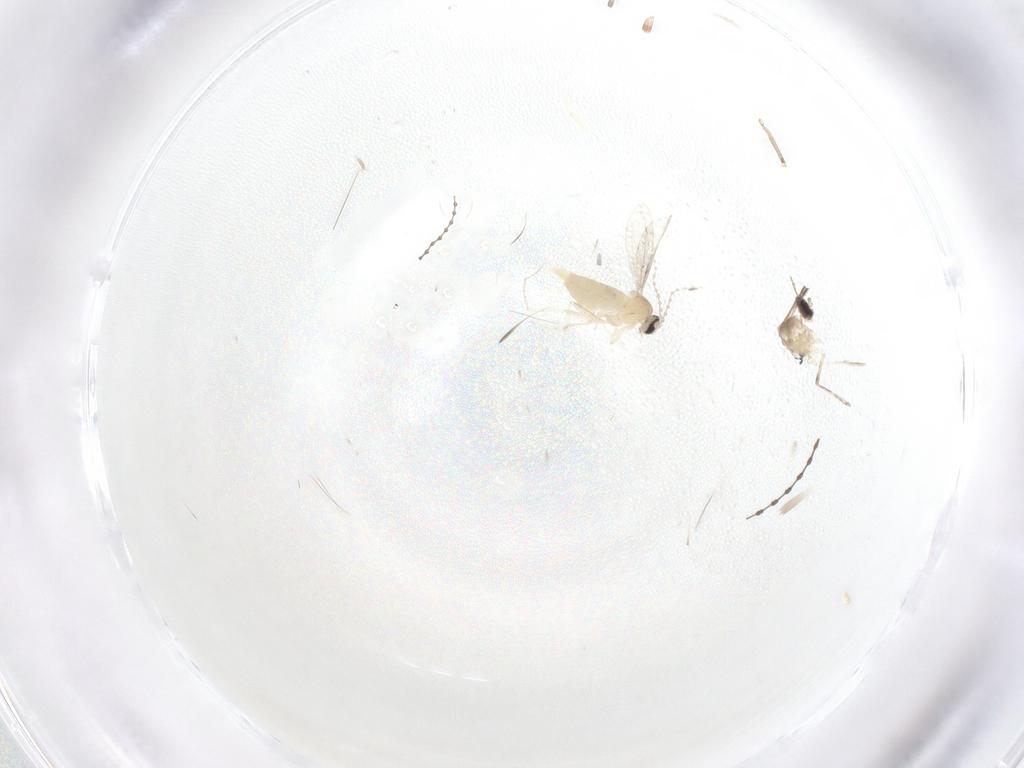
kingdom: Animalia
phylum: Arthropoda
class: Insecta
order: Diptera
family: Cecidomyiidae
